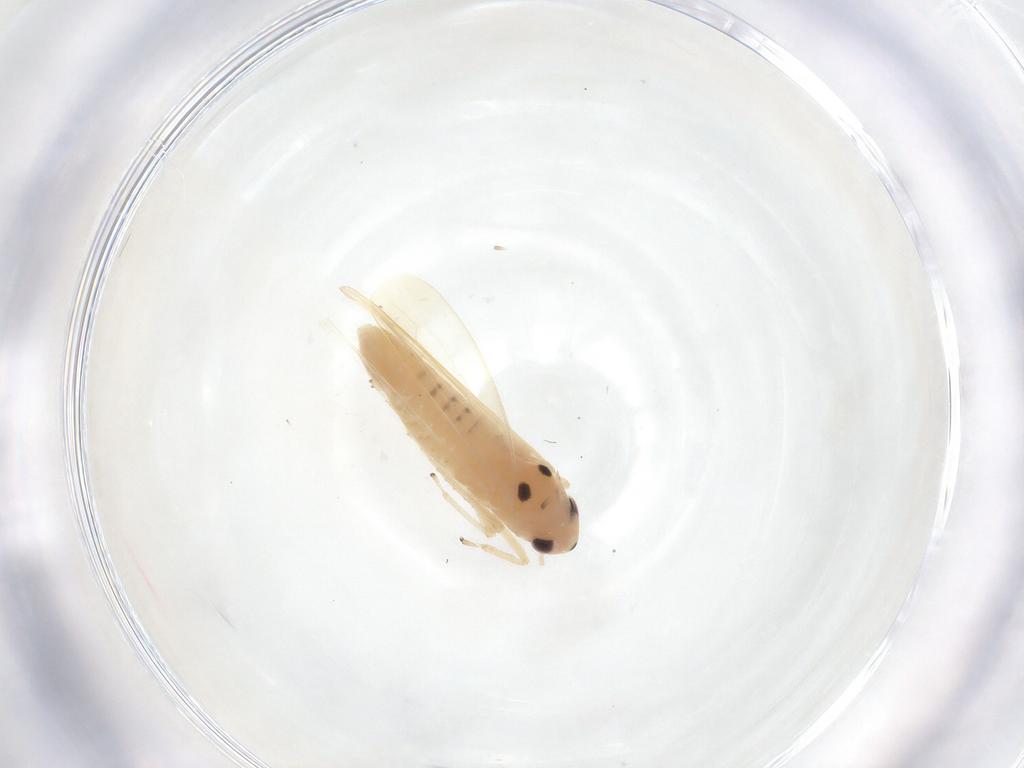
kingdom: Animalia
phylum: Arthropoda
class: Insecta
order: Hemiptera
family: Cicadellidae
